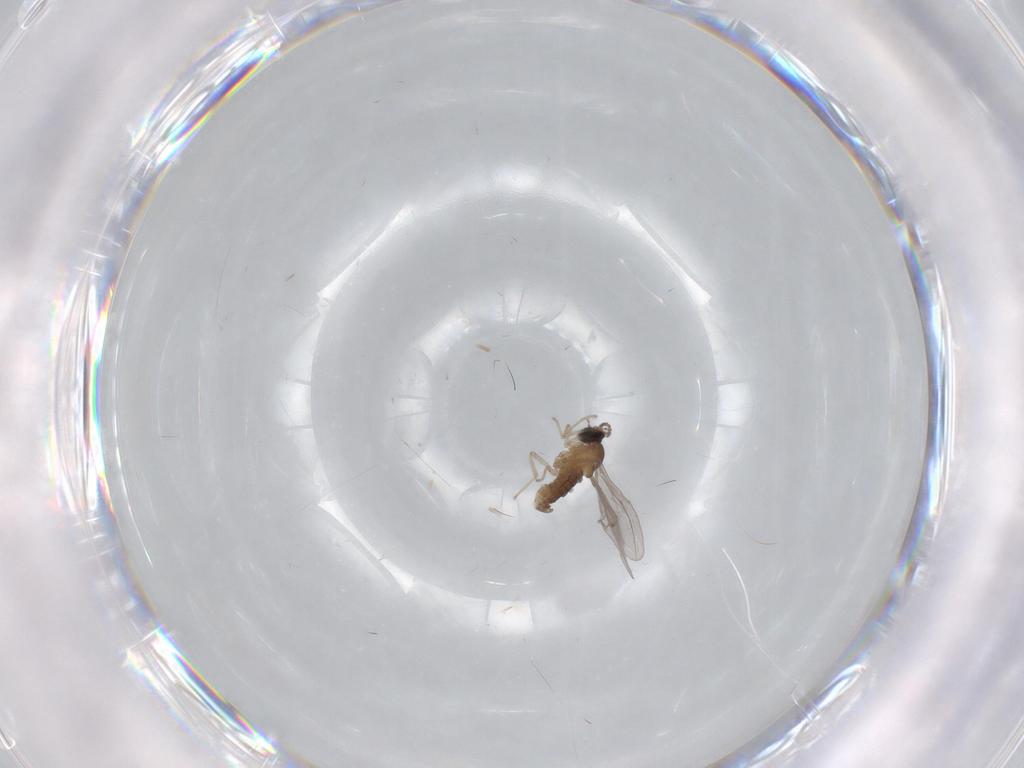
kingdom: Animalia
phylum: Arthropoda
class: Insecta
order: Diptera
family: Cecidomyiidae
